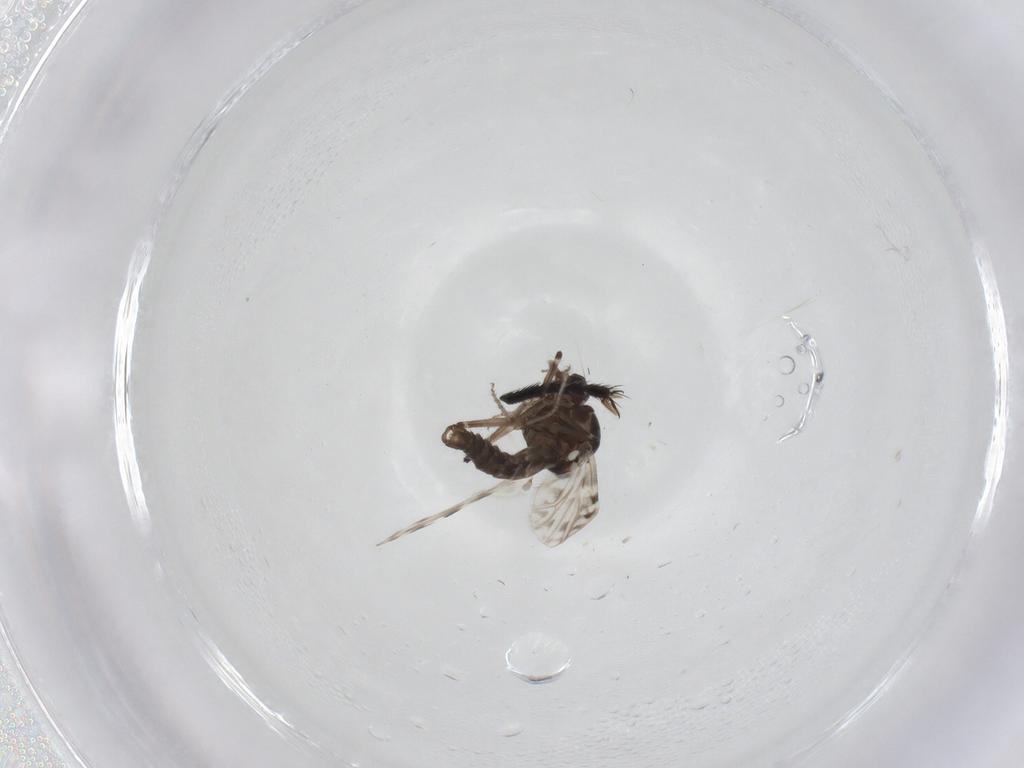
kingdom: Animalia
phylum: Arthropoda
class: Insecta
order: Diptera
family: Ceratopogonidae
